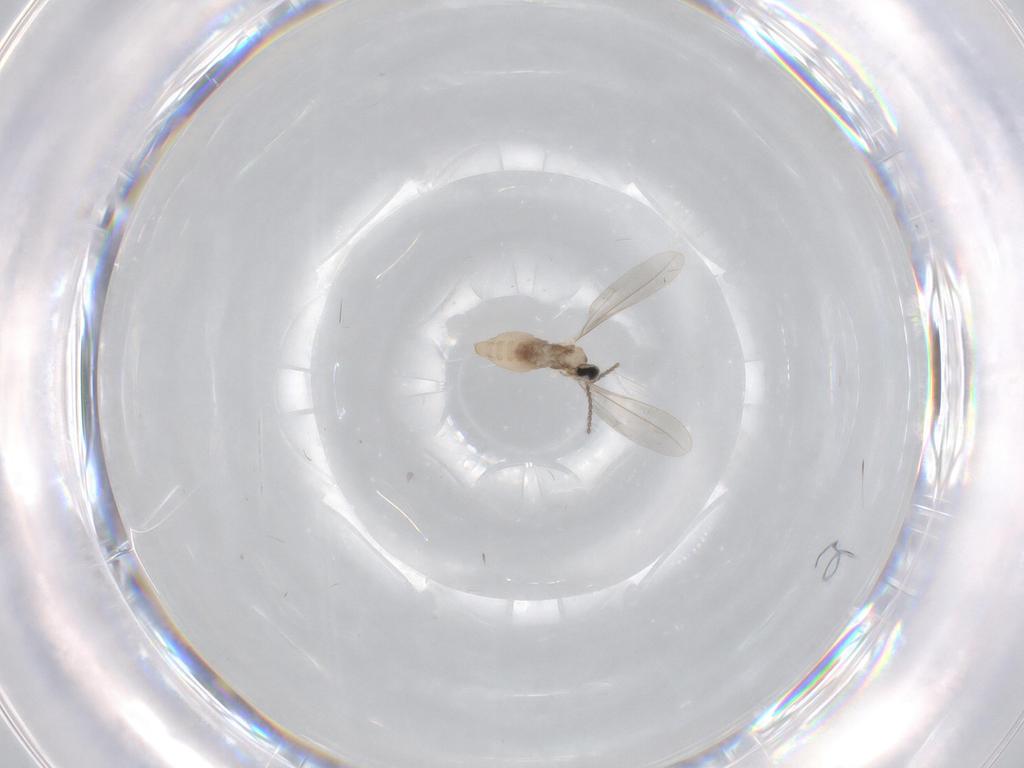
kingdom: Animalia
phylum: Arthropoda
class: Insecta
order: Diptera
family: Cecidomyiidae
